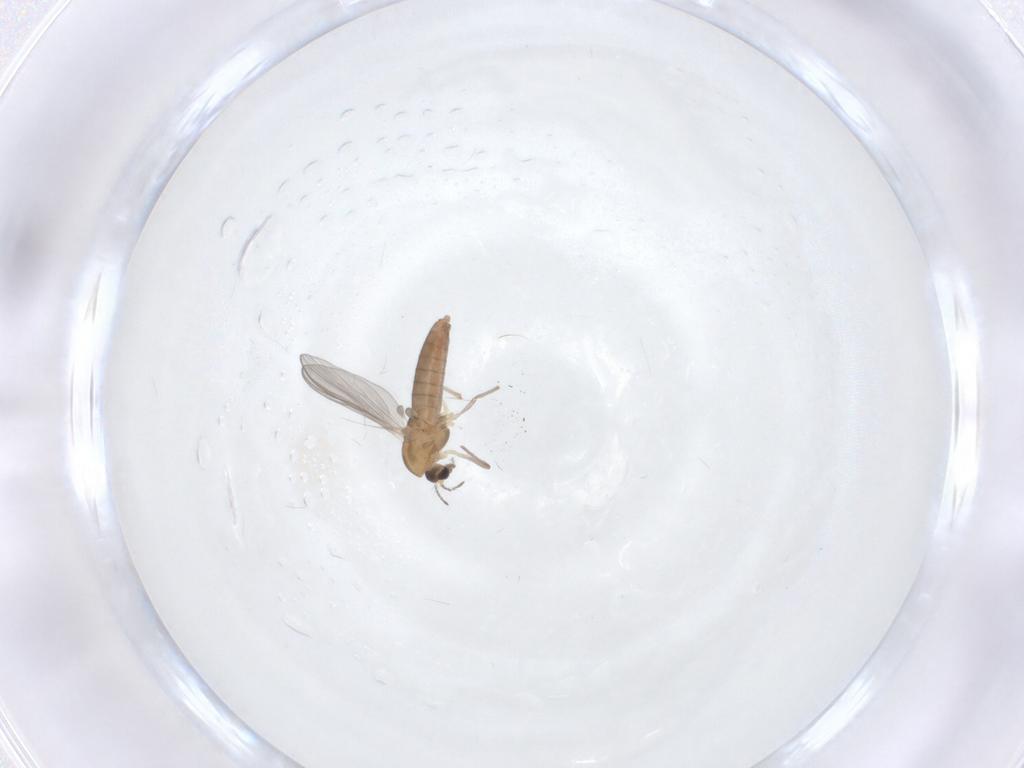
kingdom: Animalia
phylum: Arthropoda
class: Insecta
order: Diptera
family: Chironomidae
